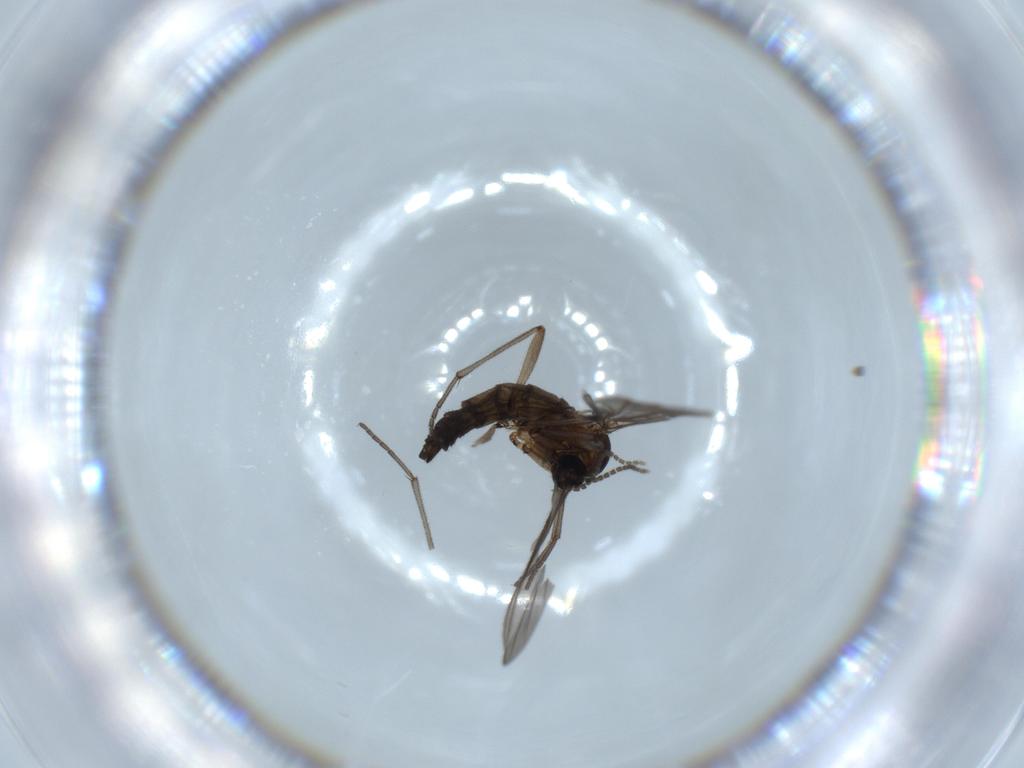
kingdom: Animalia
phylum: Arthropoda
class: Insecta
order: Diptera
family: Sciaridae
